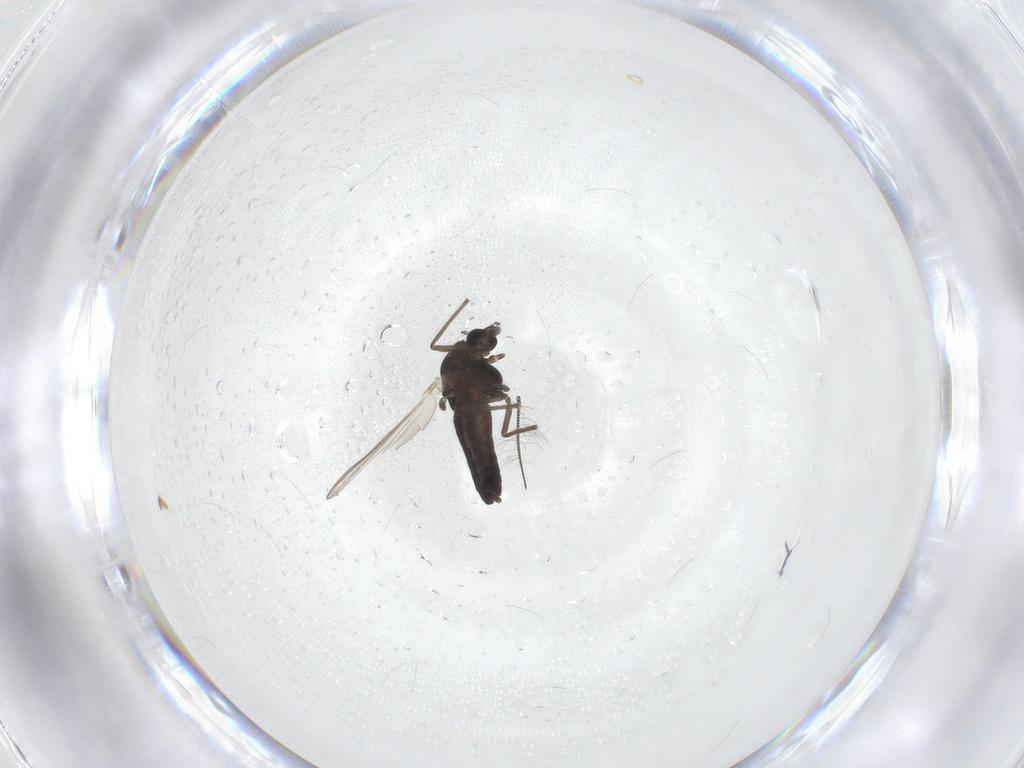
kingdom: Animalia
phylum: Arthropoda
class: Insecta
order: Diptera
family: Chironomidae
